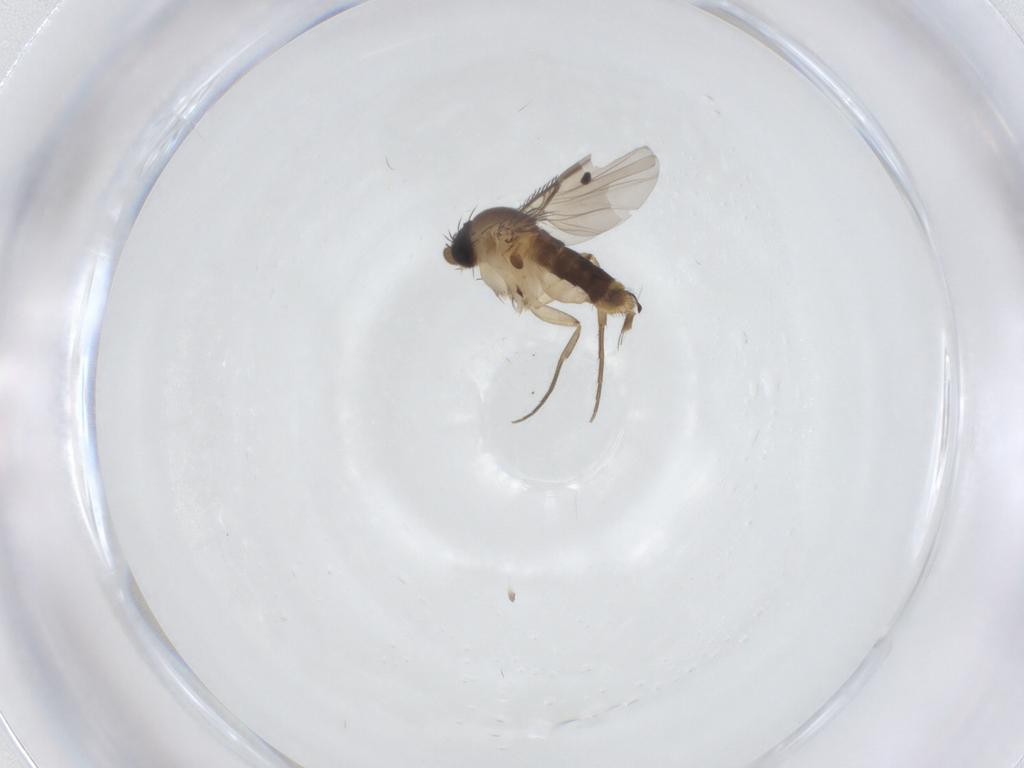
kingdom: Animalia
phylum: Arthropoda
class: Insecta
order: Diptera
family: Phoridae
